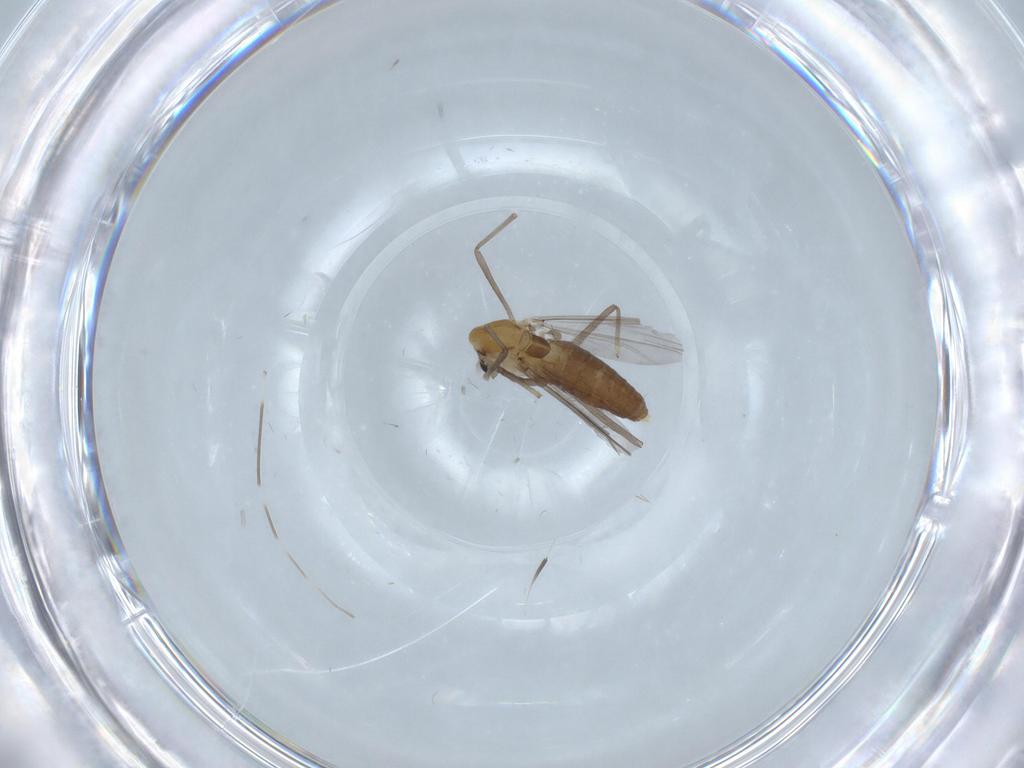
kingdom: Animalia
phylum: Arthropoda
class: Insecta
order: Diptera
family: Chironomidae
